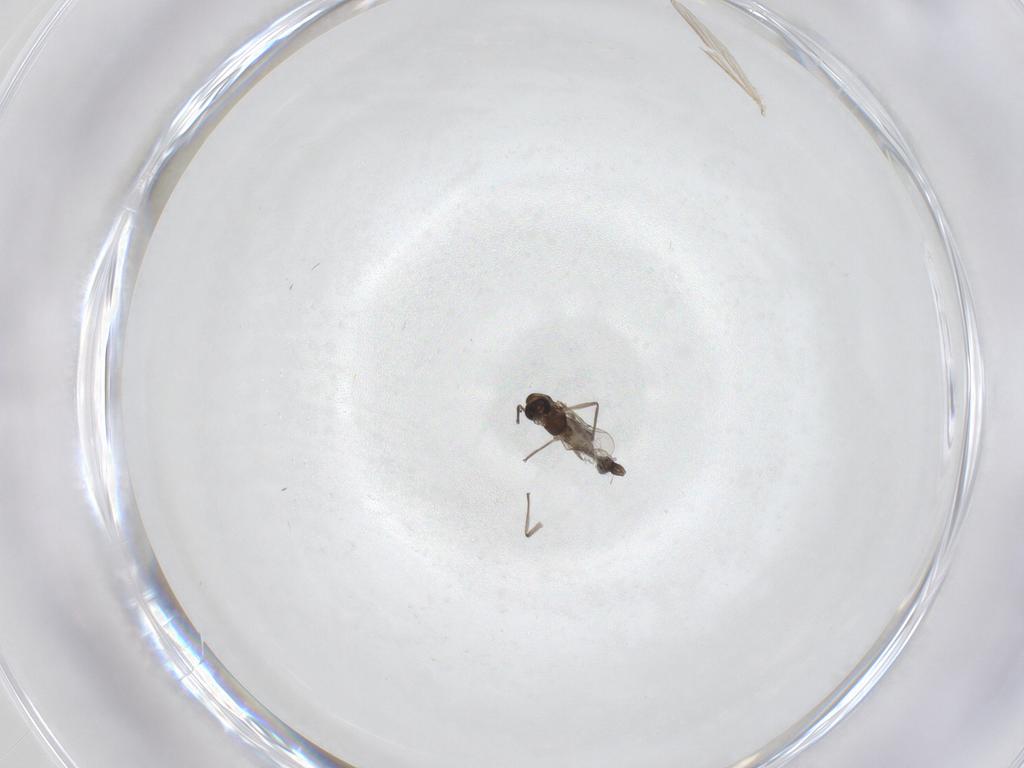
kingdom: Animalia
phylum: Arthropoda
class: Insecta
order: Diptera
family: Chironomidae
